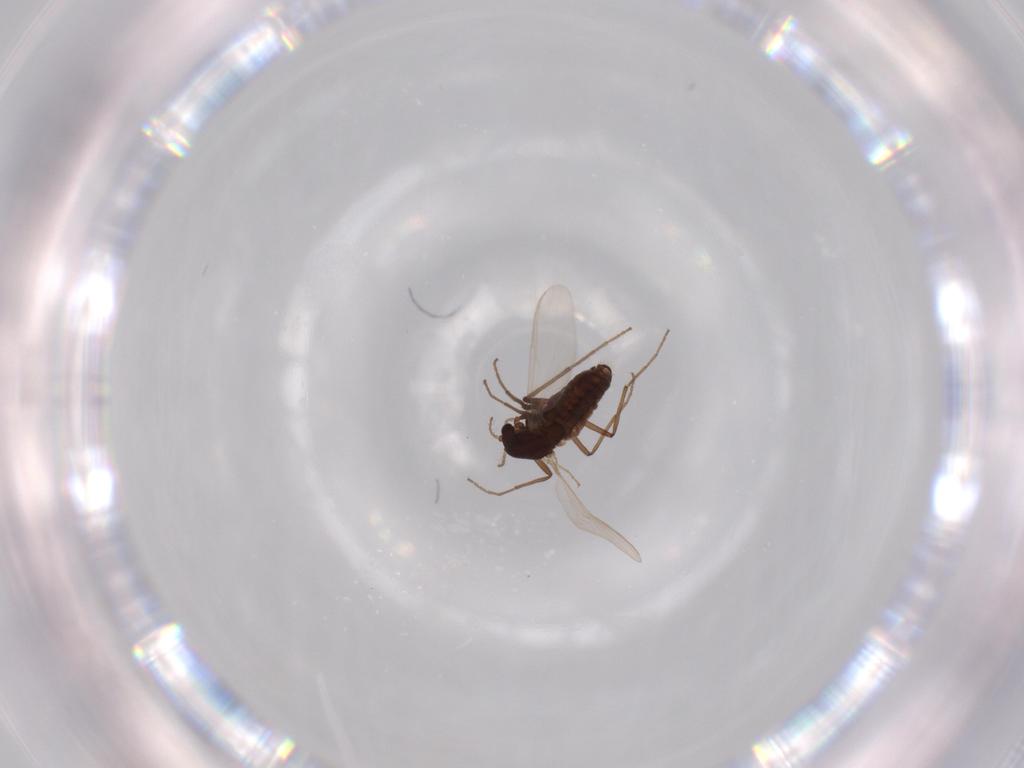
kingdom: Animalia
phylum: Arthropoda
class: Insecta
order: Diptera
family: Chironomidae
